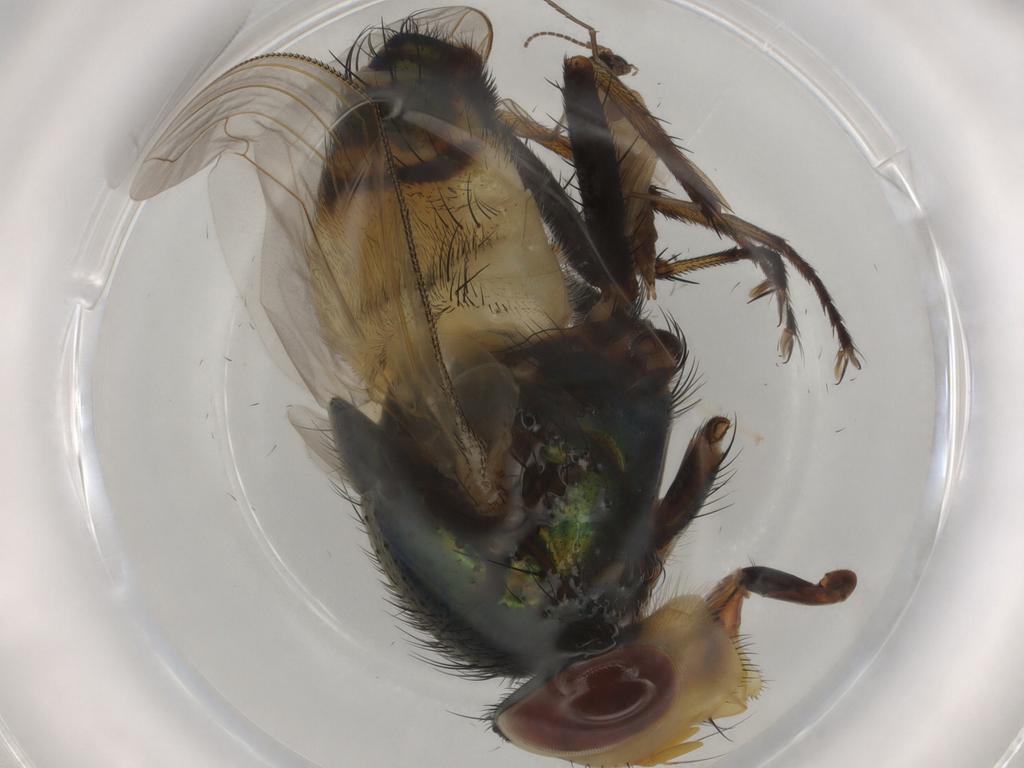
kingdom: Animalia
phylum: Arthropoda
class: Insecta
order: Diptera
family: Calliphoridae
